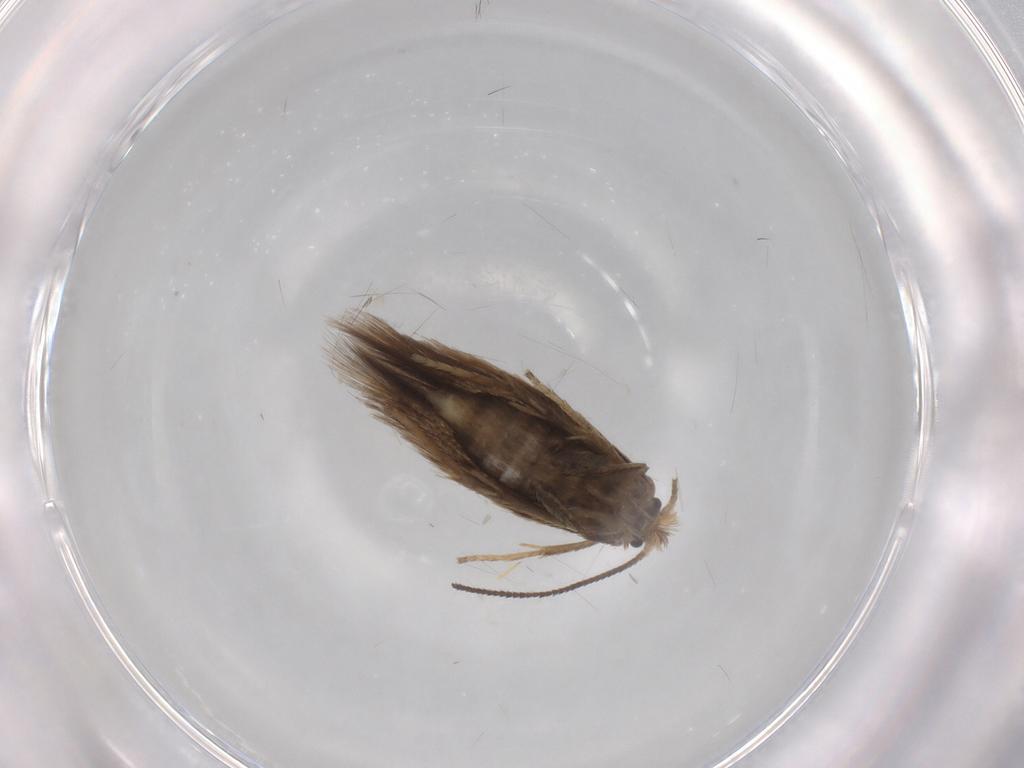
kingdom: Animalia
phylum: Arthropoda
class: Insecta
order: Lepidoptera
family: Nepticulidae
